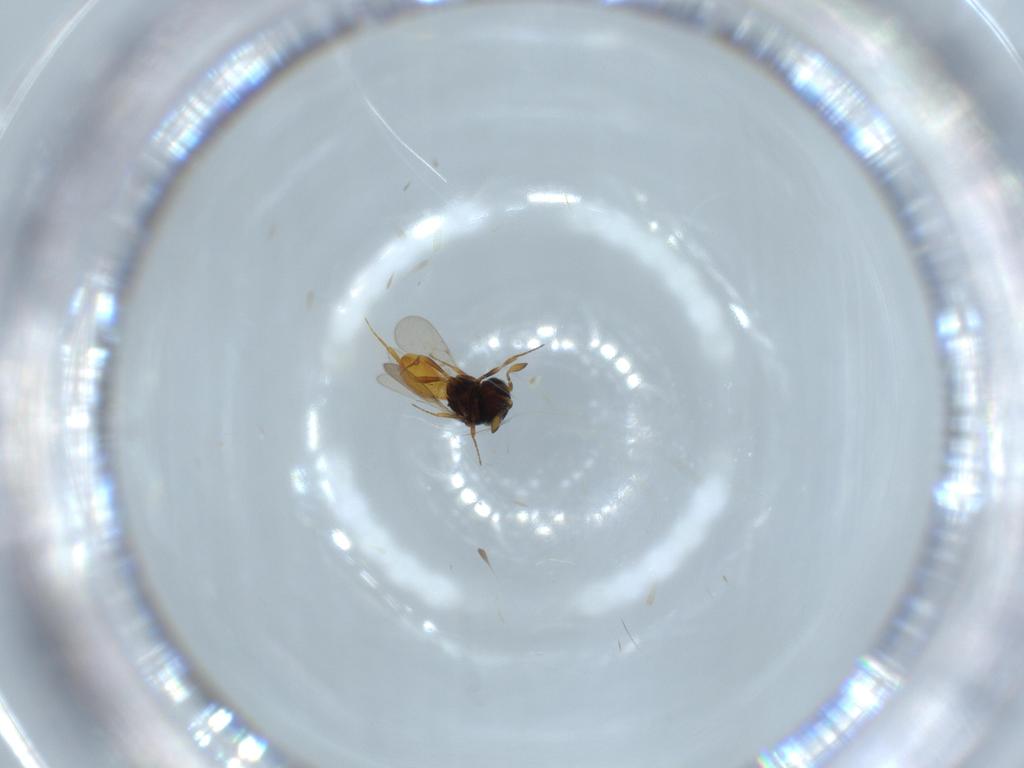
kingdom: Animalia
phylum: Arthropoda
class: Insecta
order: Hymenoptera
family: Scelionidae
